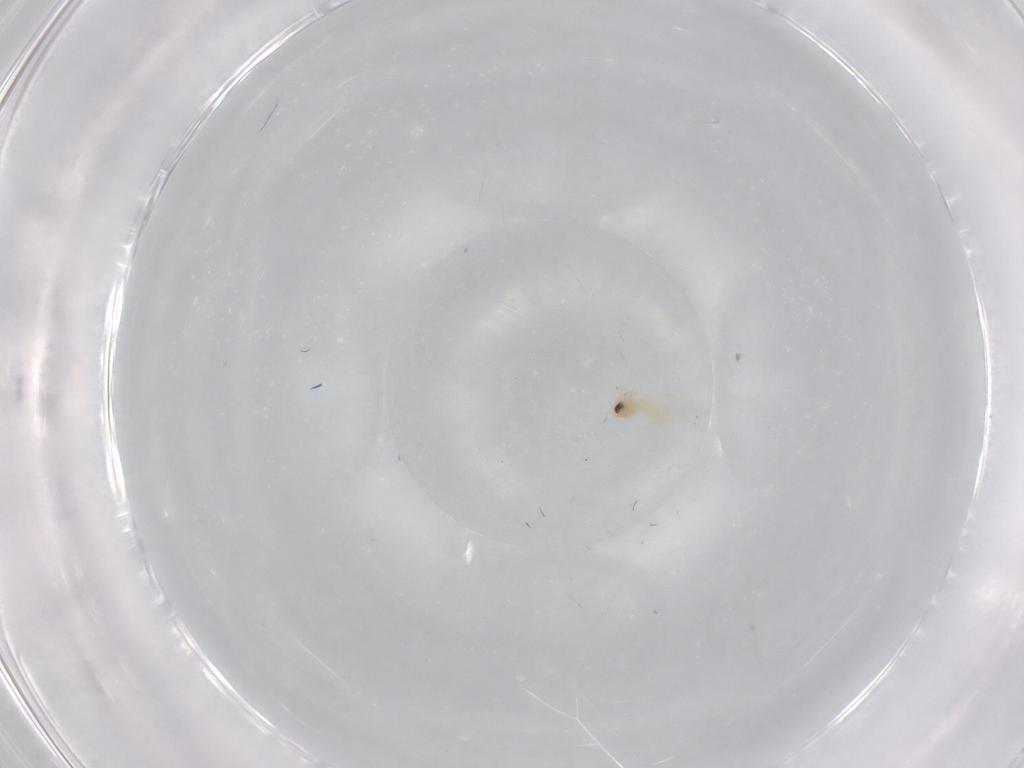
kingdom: Animalia
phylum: Arthropoda
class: Insecta
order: Hemiptera
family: Aleyrodidae
